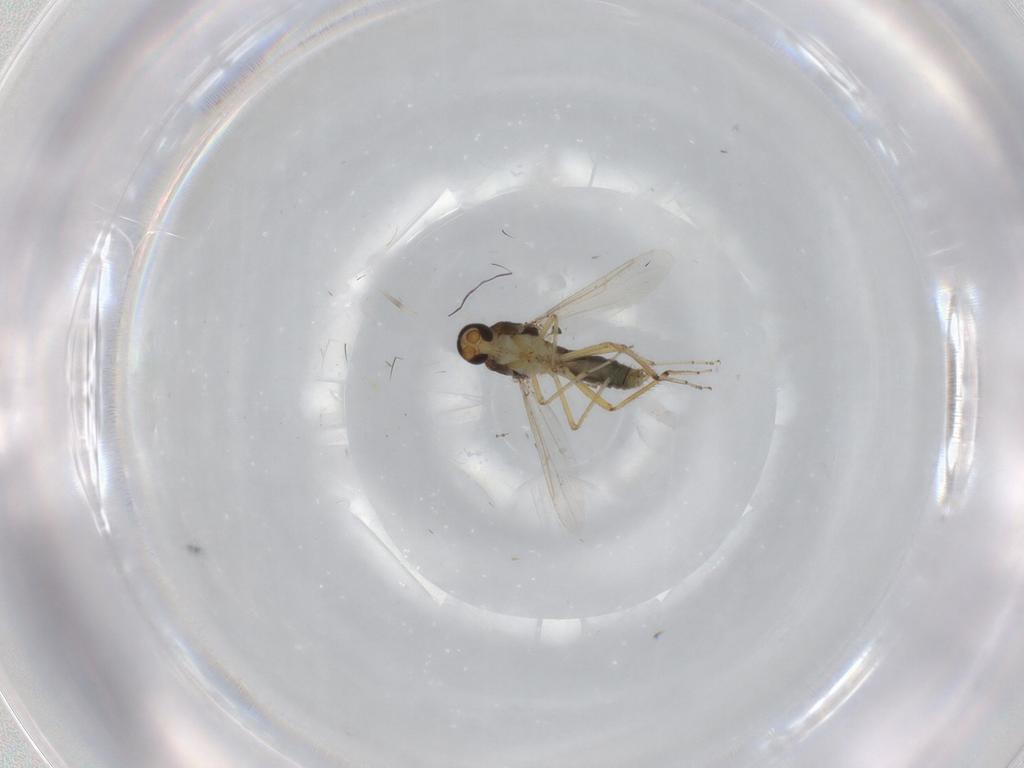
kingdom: Animalia
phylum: Arthropoda
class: Insecta
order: Diptera
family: Ceratopogonidae
